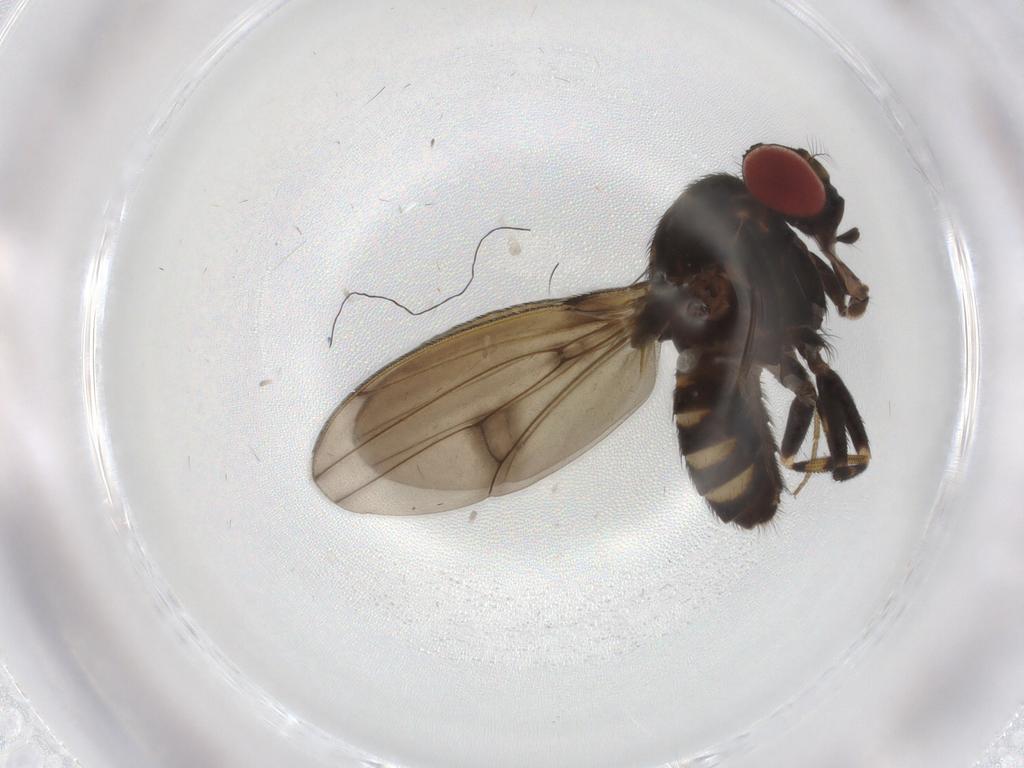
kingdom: Animalia
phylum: Arthropoda
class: Insecta
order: Diptera
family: Drosophilidae
